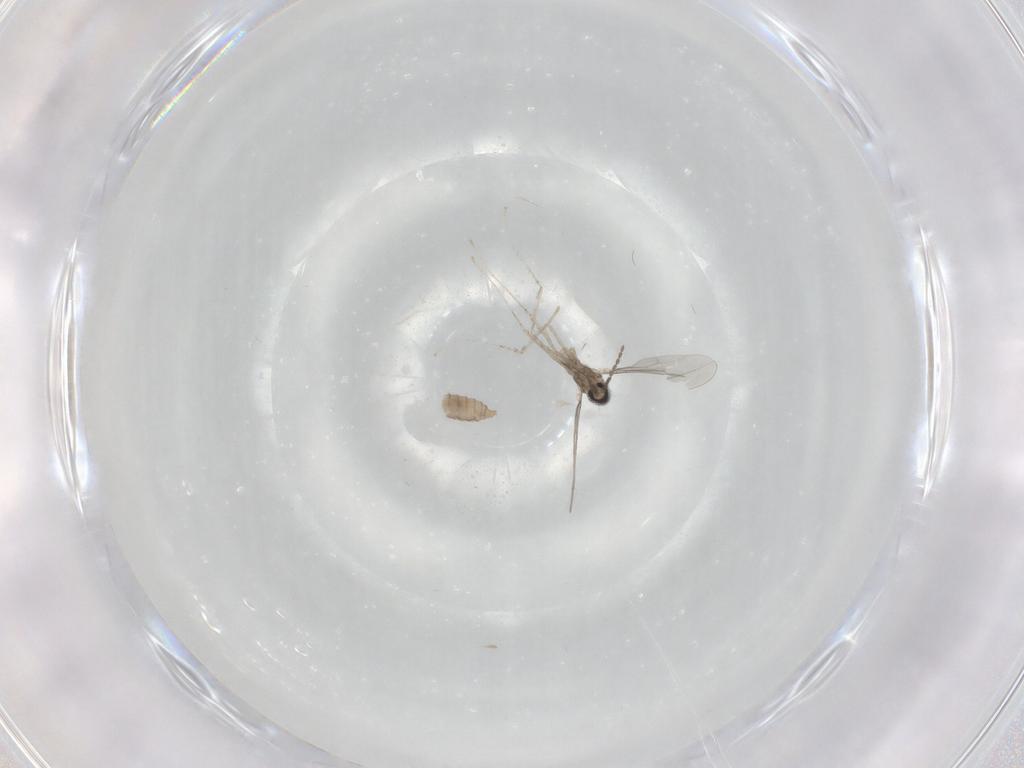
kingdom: Animalia
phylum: Arthropoda
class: Insecta
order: Diptera
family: Cecidomyiidae
